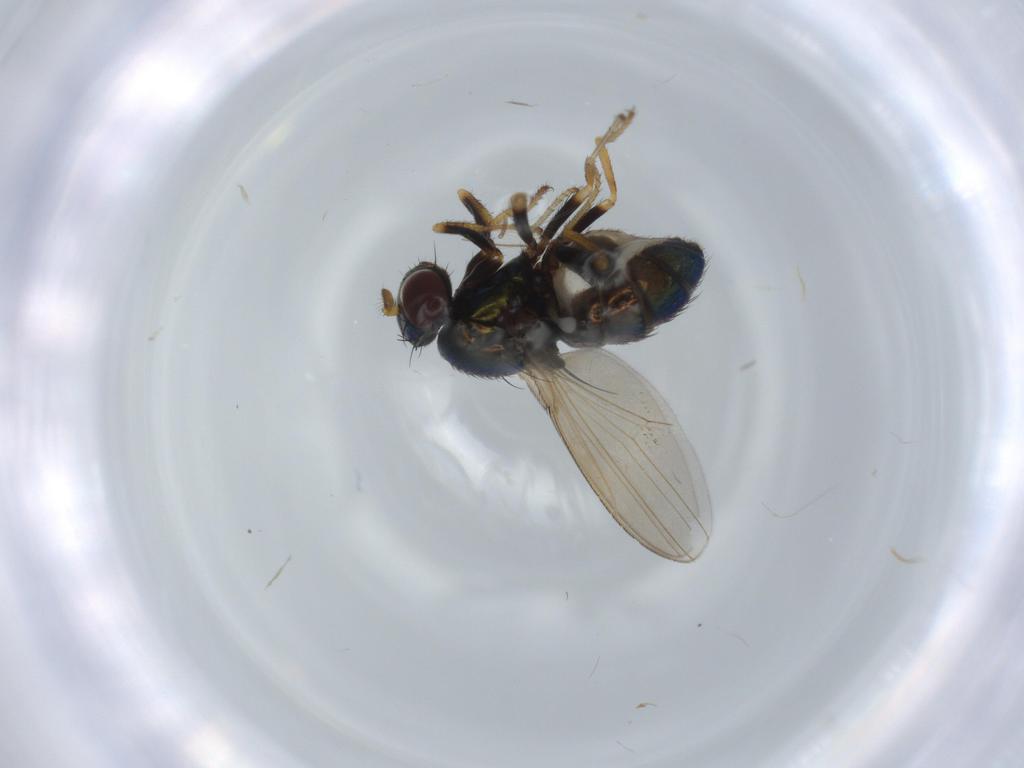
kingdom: Animalia
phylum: Arthropoda
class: Insecta
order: Diptera
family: Ephydridae
